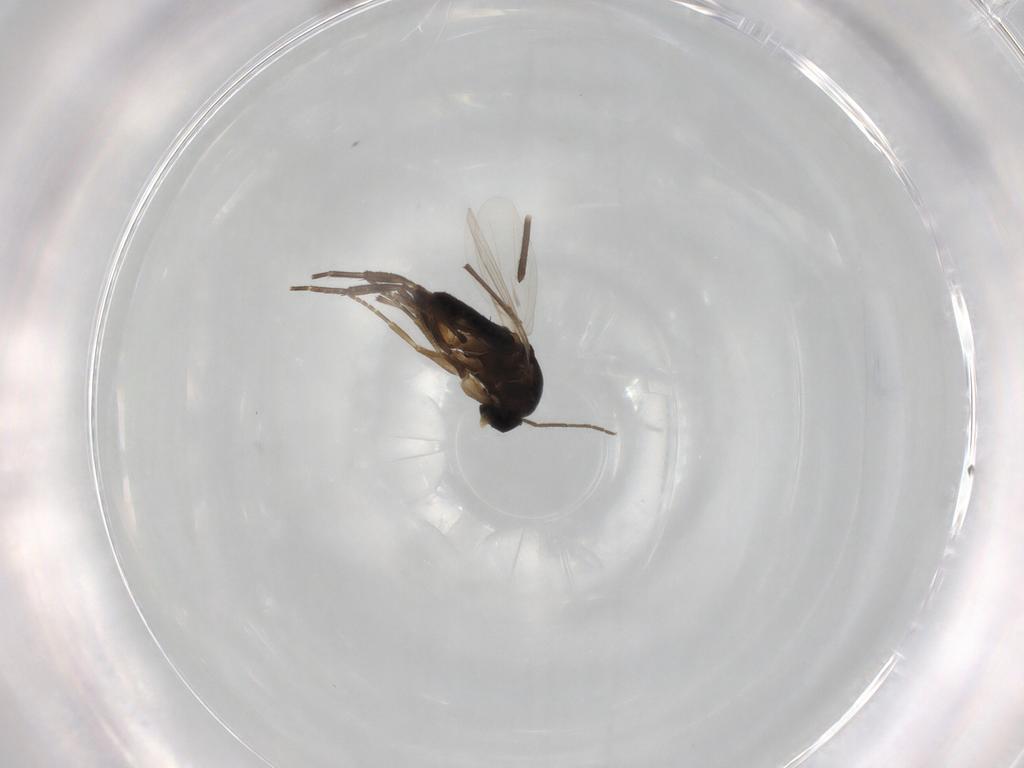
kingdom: Animalia
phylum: Arthropoda
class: Insecta
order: Diptera
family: Phoridae
